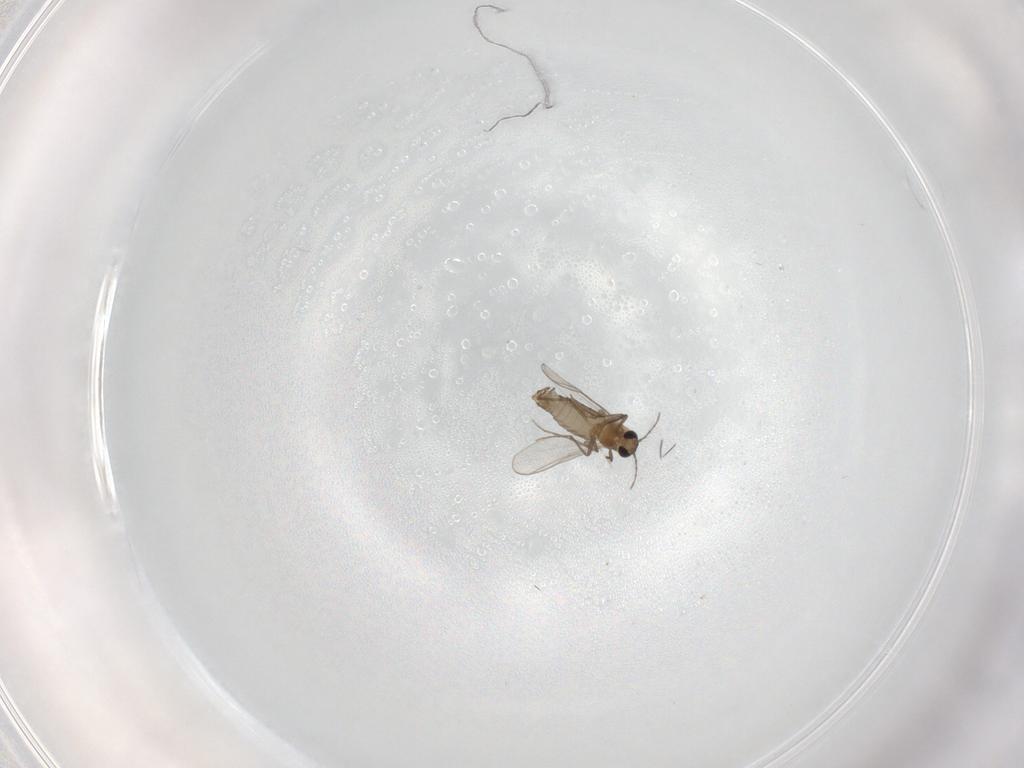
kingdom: Animalia
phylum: Arthropoda
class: Insecta
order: Diptera
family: Chironomidae
